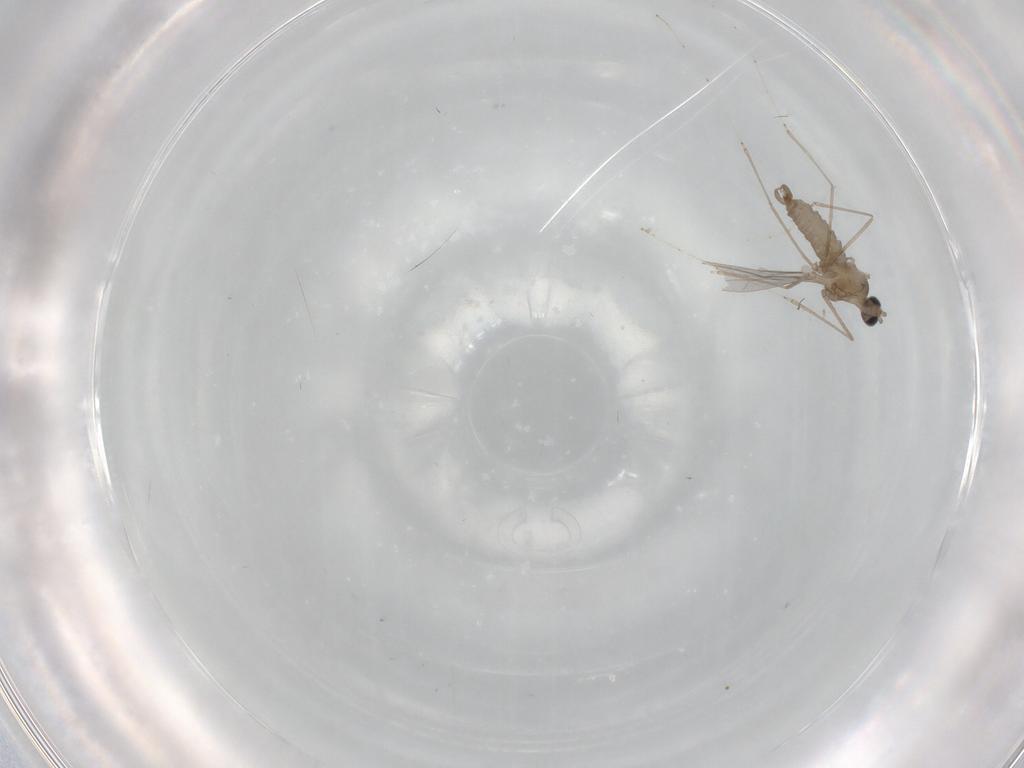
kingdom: Animalia
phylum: Arthropoda
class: Insecta
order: Diptera
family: Cecidomyiidae
